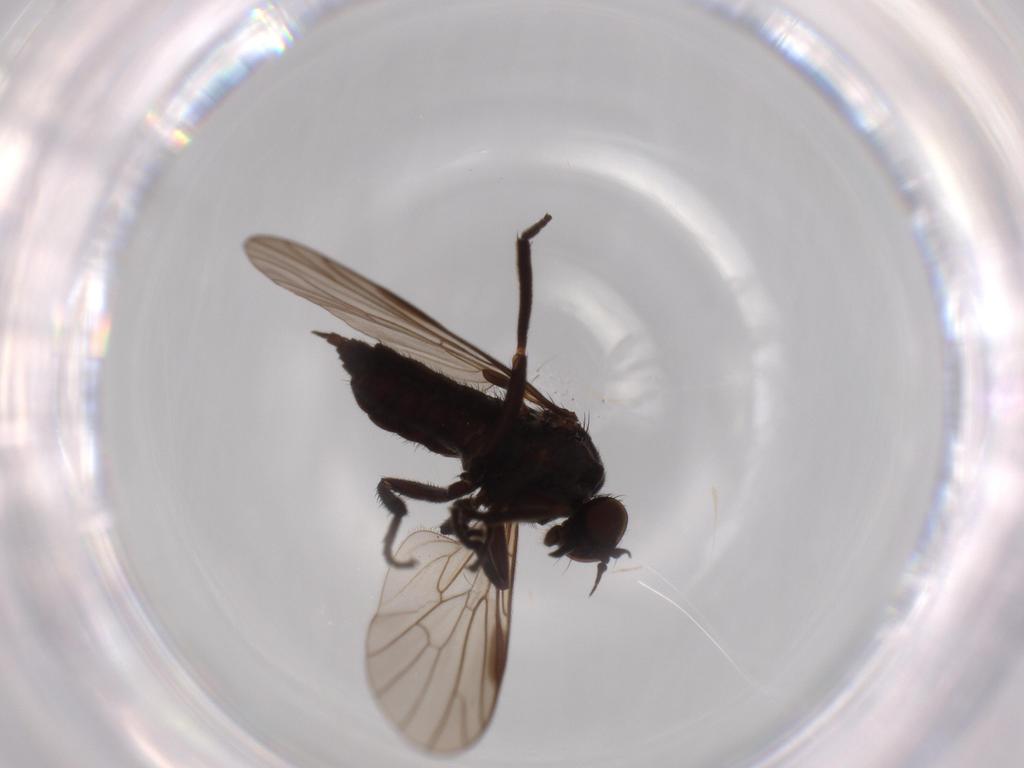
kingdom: Animalia
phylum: Arthropoda
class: Insecta
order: Diptera
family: Empididae
